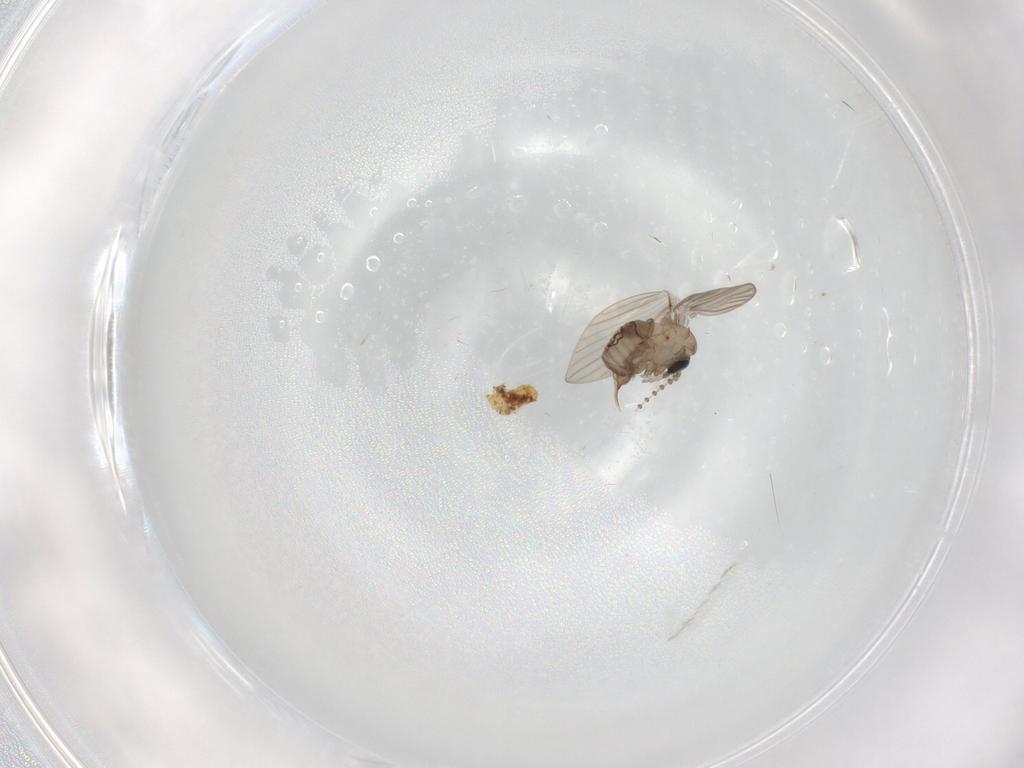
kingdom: Animalia
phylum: Arthropoda
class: Insecta
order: Diptera
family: Psychodidae
